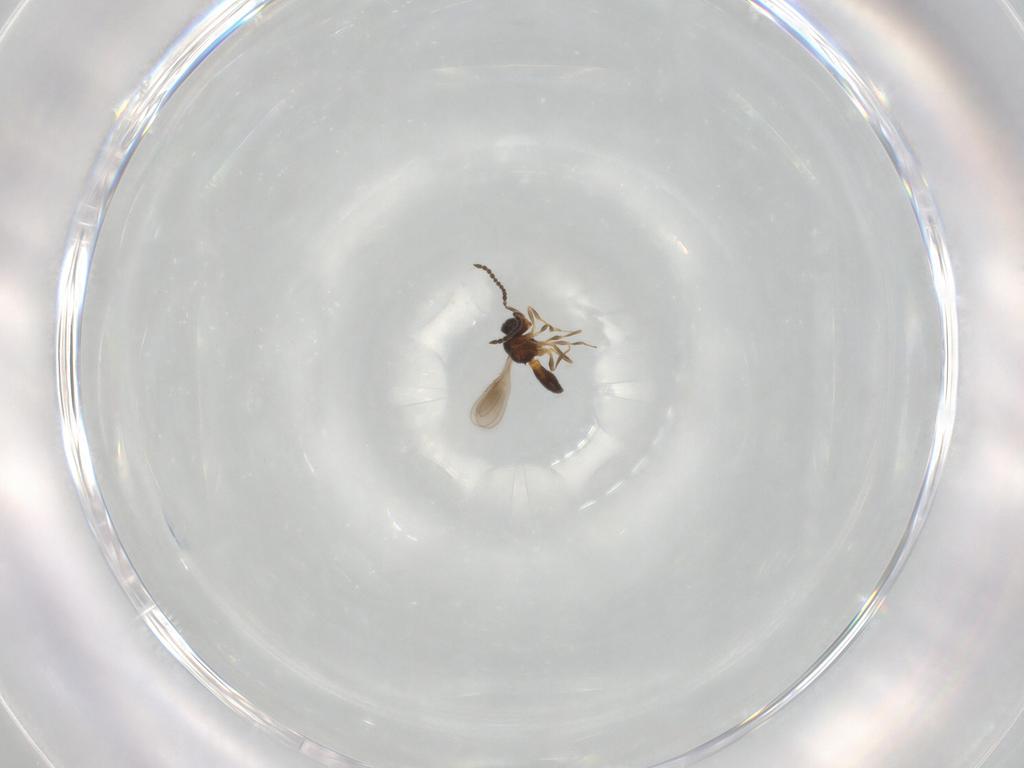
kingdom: Animalia
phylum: Arthropoda
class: Insecta
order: Hymenoptera
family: Scelionidae
